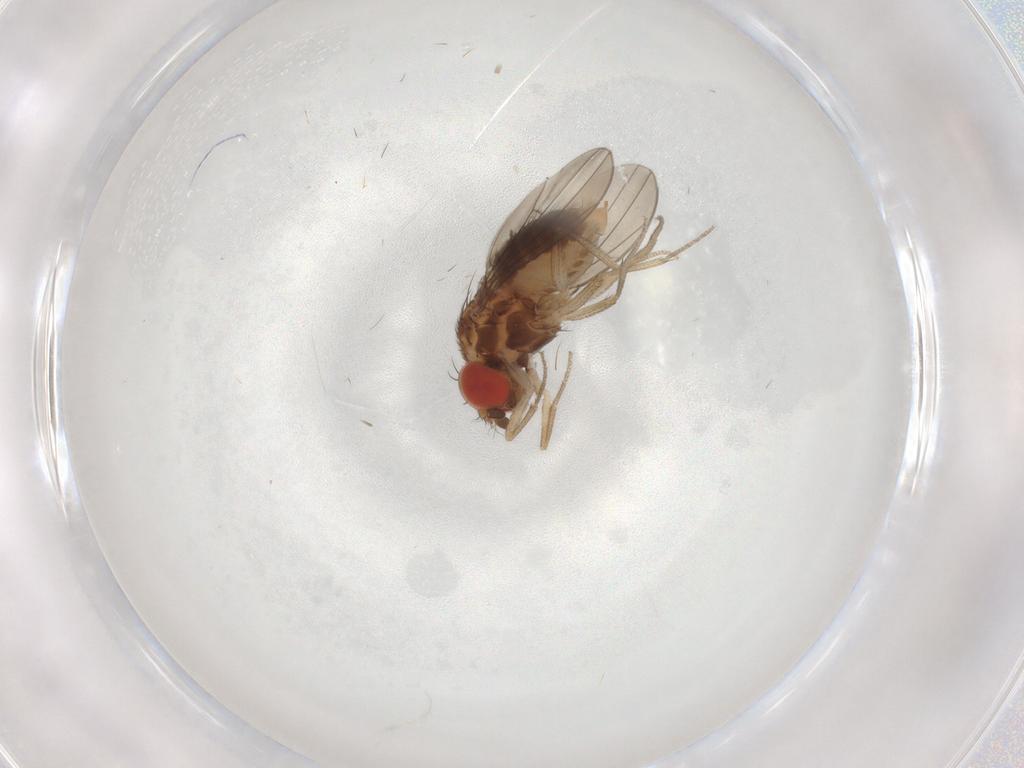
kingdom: Animalia
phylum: Arthropoda
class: Insecta
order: Diptera
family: Drosophilidae
